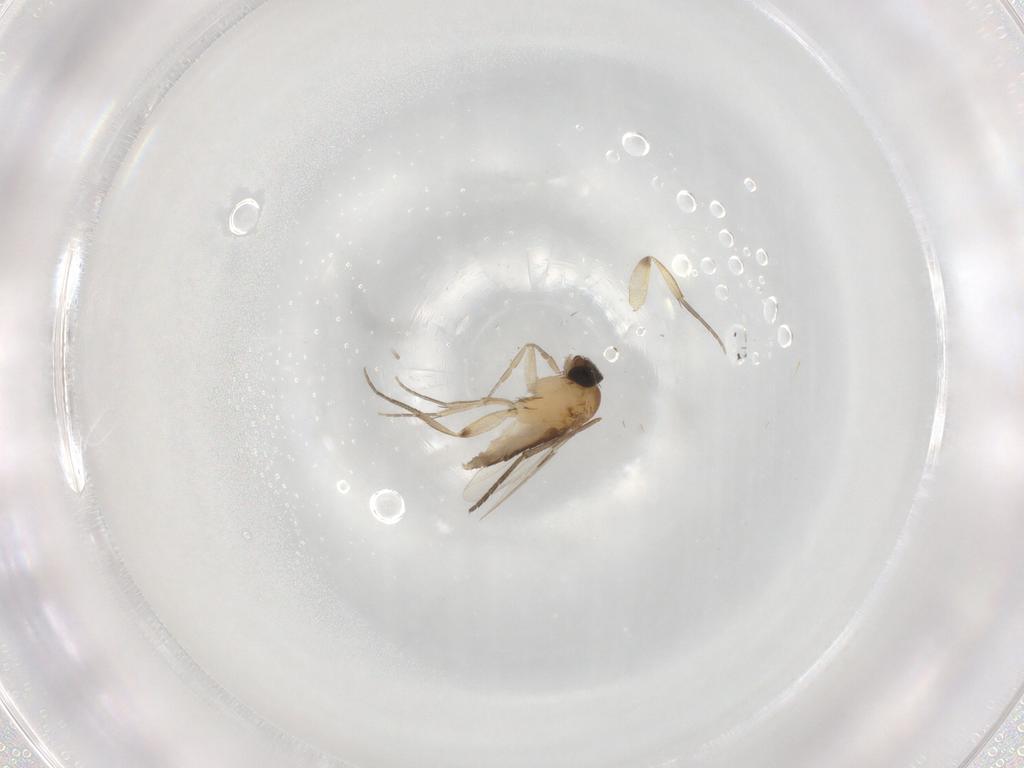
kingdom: Animalia
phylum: Arthropoda
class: Insecta
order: Diptera
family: Phoridae
